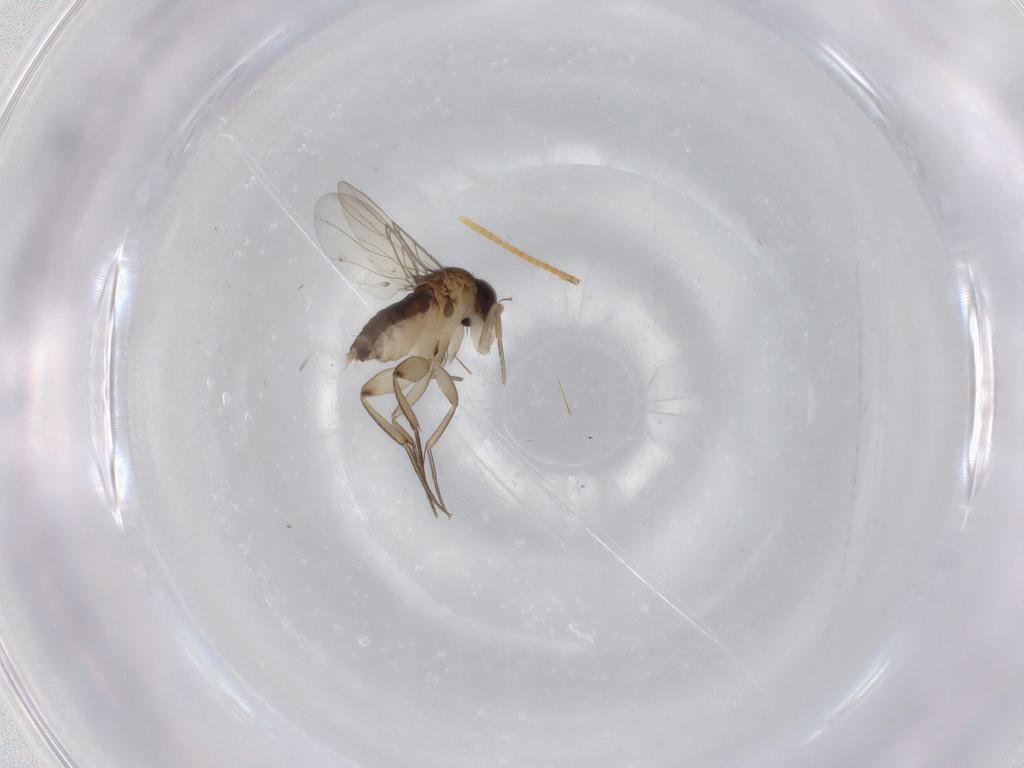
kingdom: Animalia
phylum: Arthropoda
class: Insecta
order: Diptera
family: Phoridae
